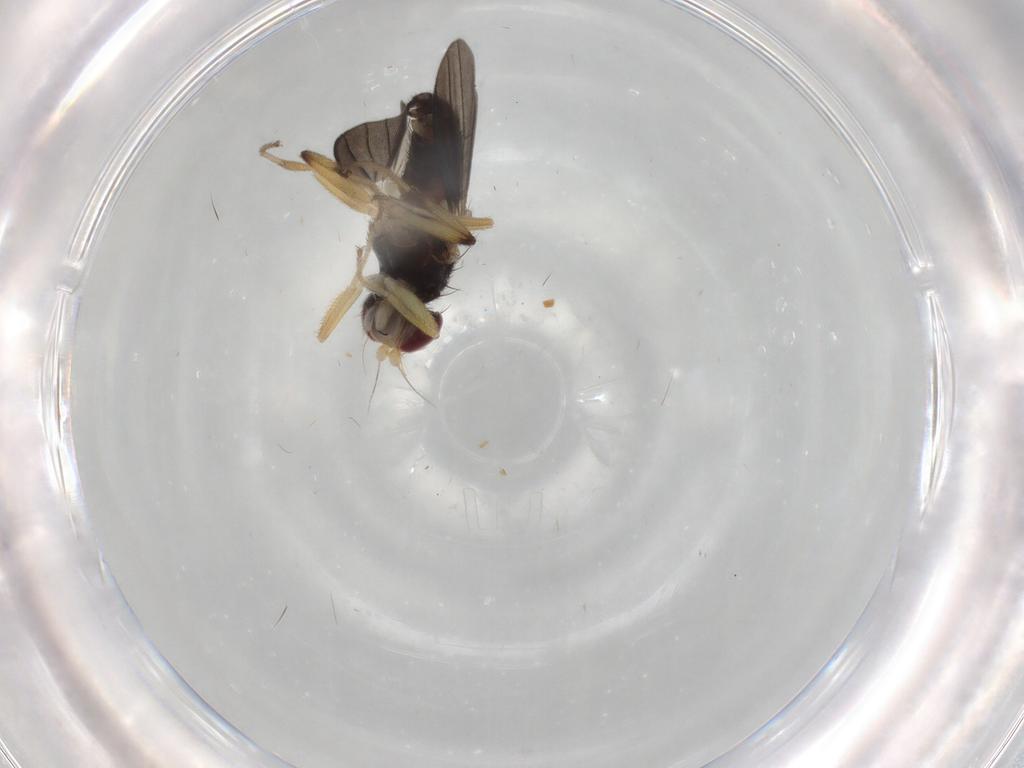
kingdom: Animalia
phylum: Arthropoda
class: Insecta
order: Diptera
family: Clusiidae
